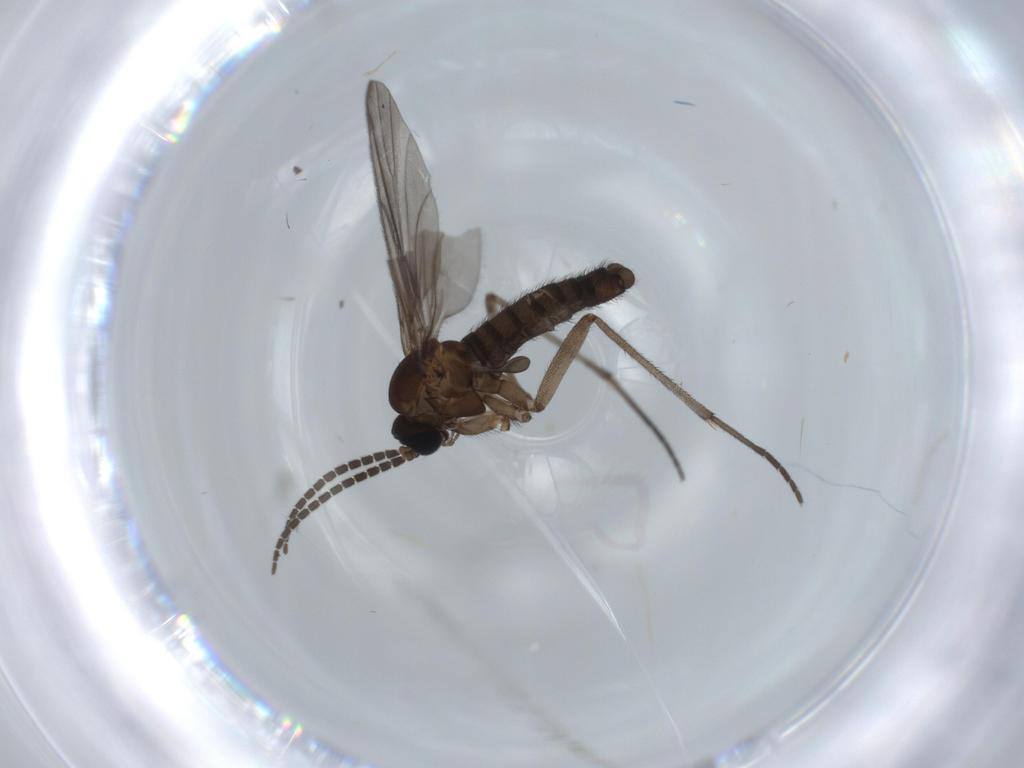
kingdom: Animalia
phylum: Arthropoda
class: Insecta
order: Diptera
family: Sciaridae
